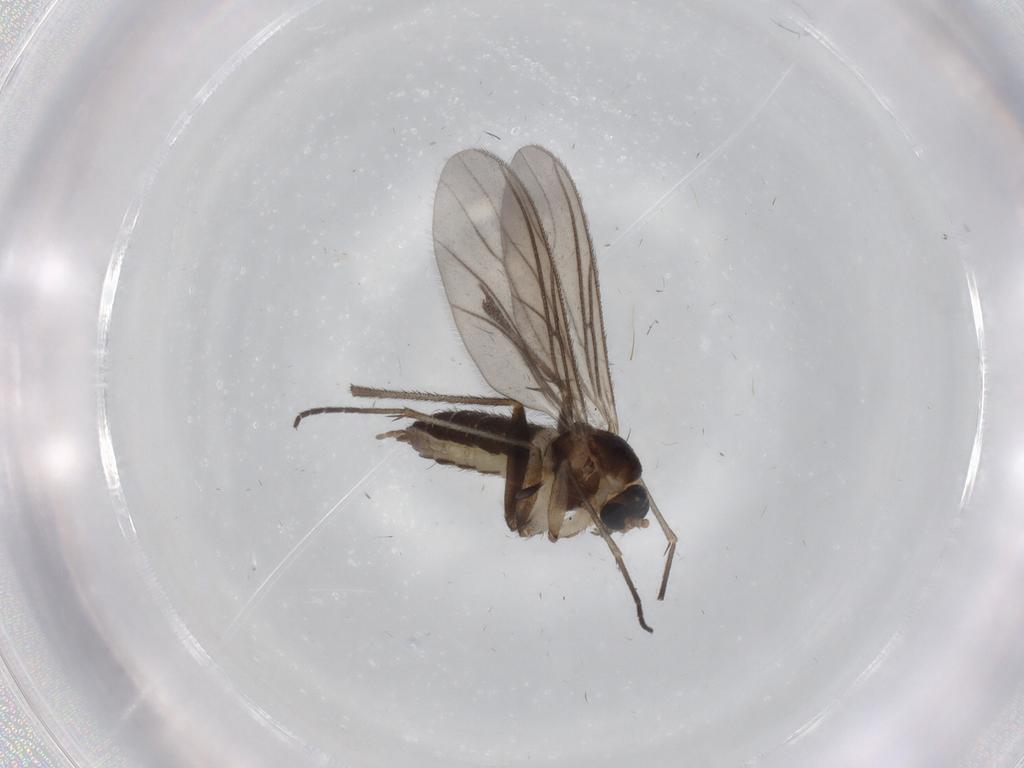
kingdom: Animalia
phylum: Arthropoda
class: Insecta
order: Diptera
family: Sciaridae
